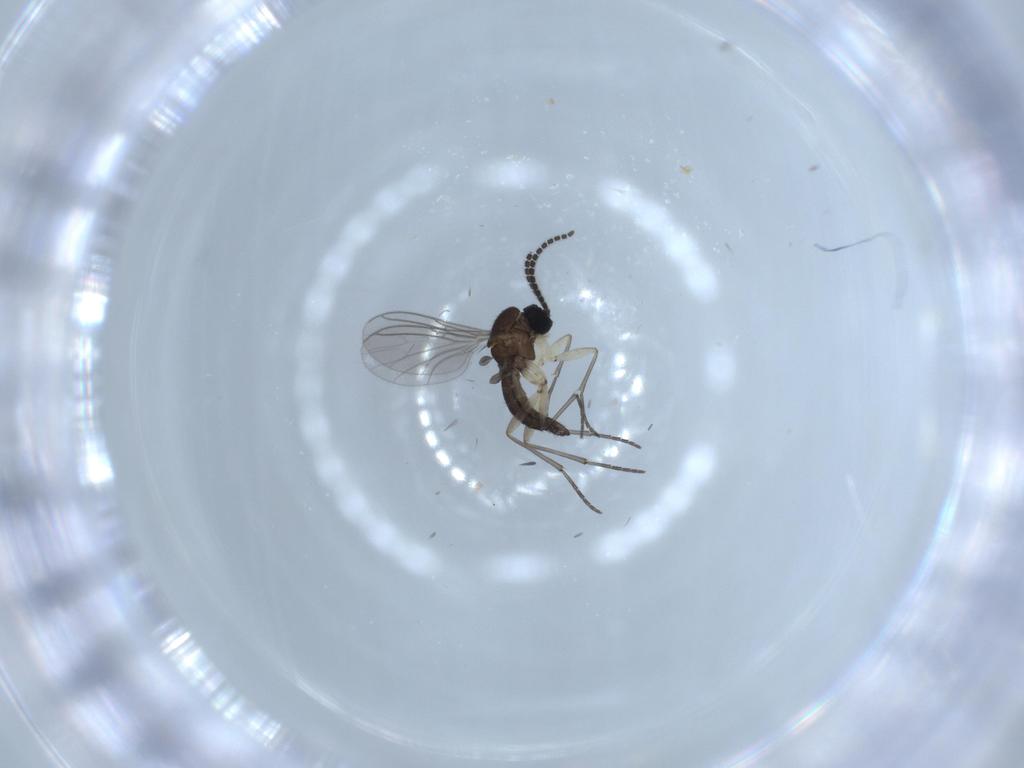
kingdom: Animalia
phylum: Arthropoda
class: Insecta
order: Diptera
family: Sciaridae
